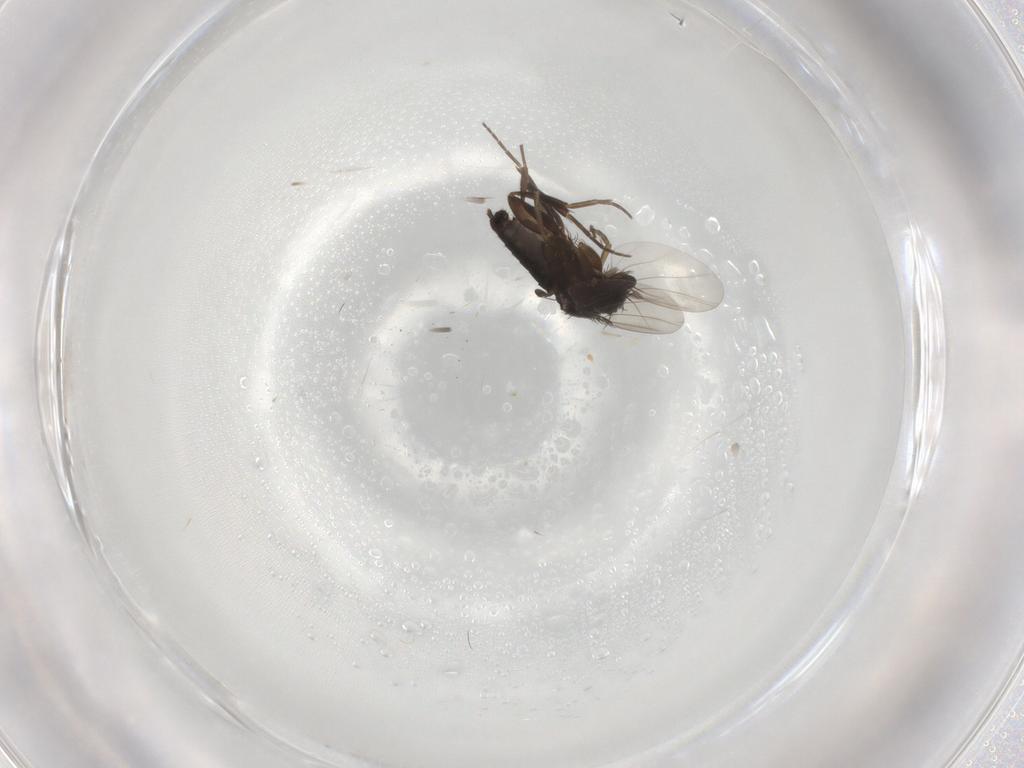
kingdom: Animalia
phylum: Arthropoda
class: Insecta
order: Diptera
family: Phoridae
